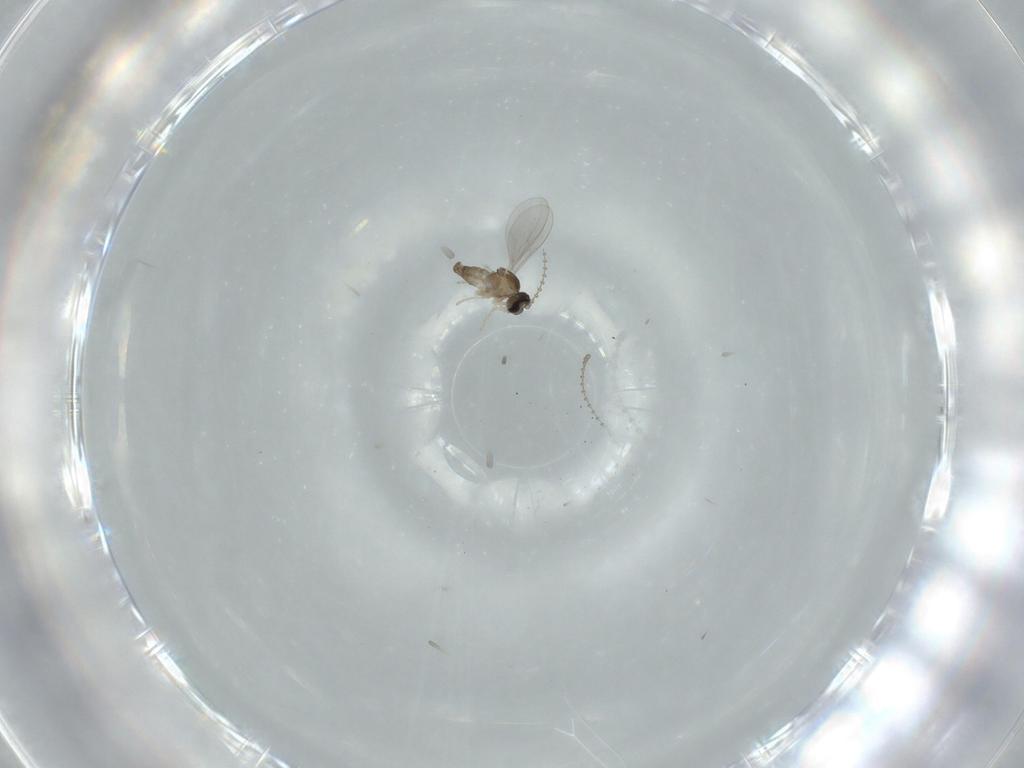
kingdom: Animalia
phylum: Arthropoda
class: Insecta
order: Diptera
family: Cecidomyiidae
